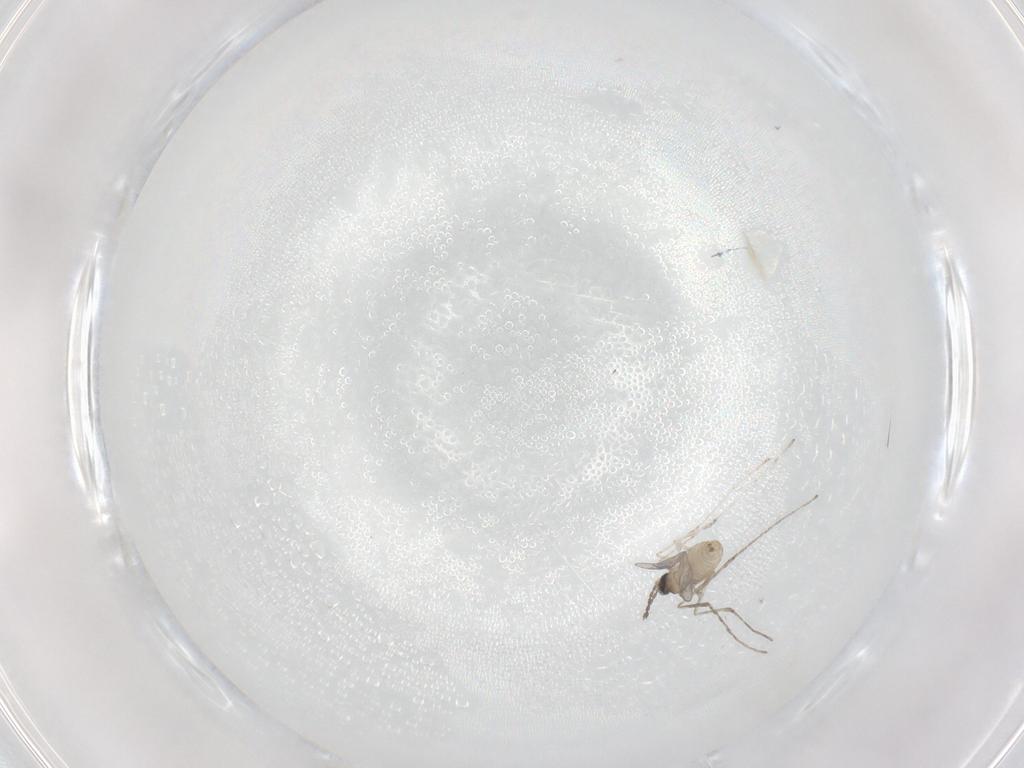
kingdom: Animalia
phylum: Arthropoda
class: Insecta
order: Diptera
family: Cecidomyiidae
